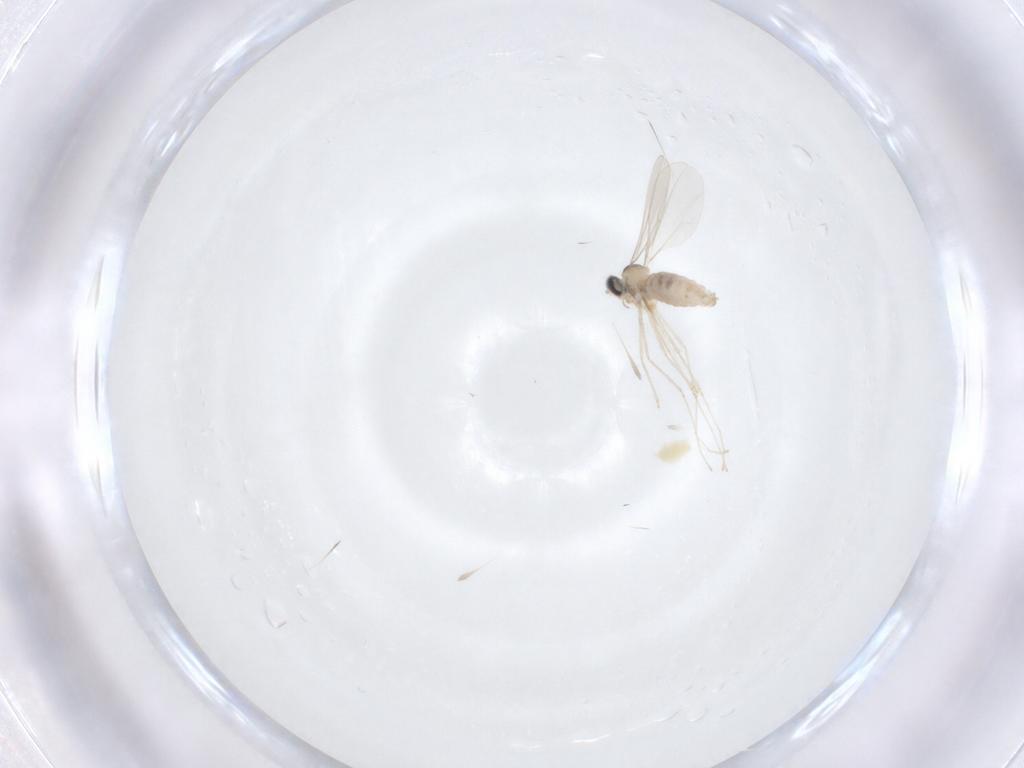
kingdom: Animalia
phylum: Arthropoda
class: Insecta
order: Diptera
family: Cecidomyiidae
